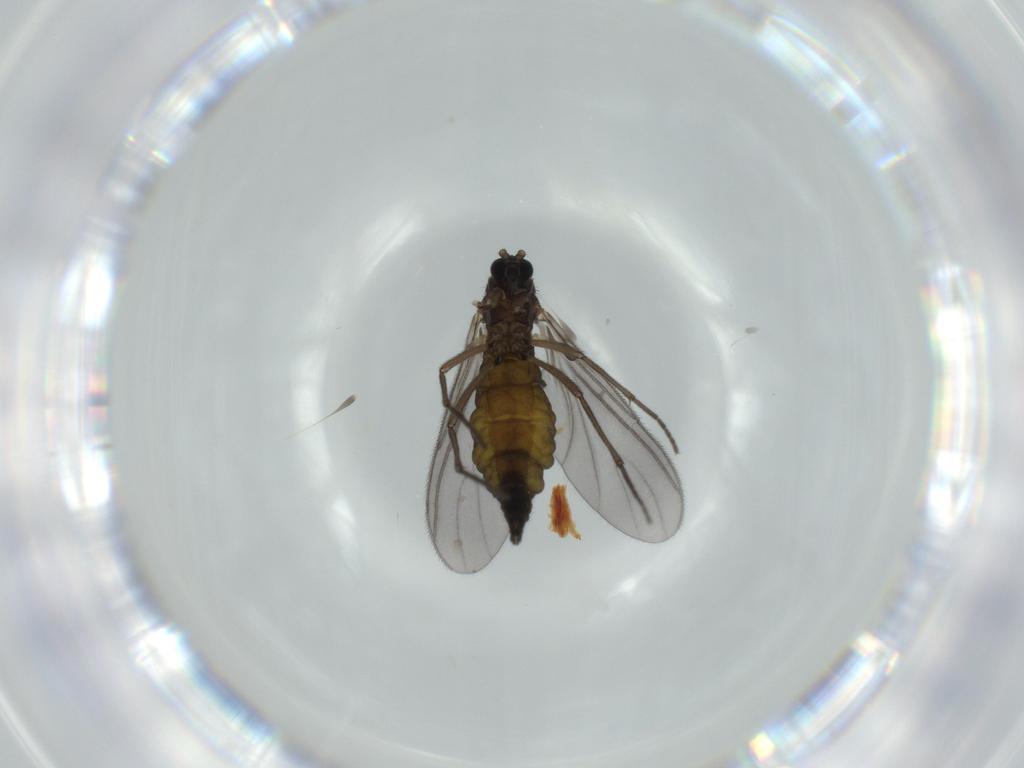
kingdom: Animalia
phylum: Arthropoda
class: Insecta
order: Diptera
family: Sciaridae
